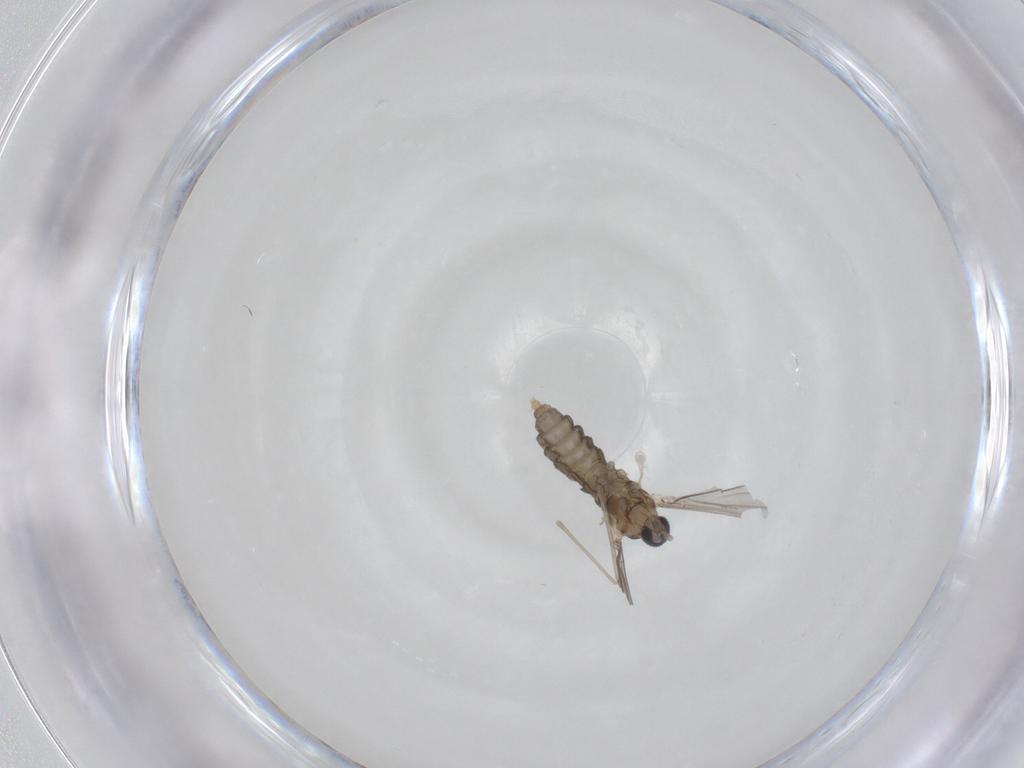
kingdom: Animalia
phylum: Arthropoda
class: Insecta
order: Diptera
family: Cecidomyiidae
